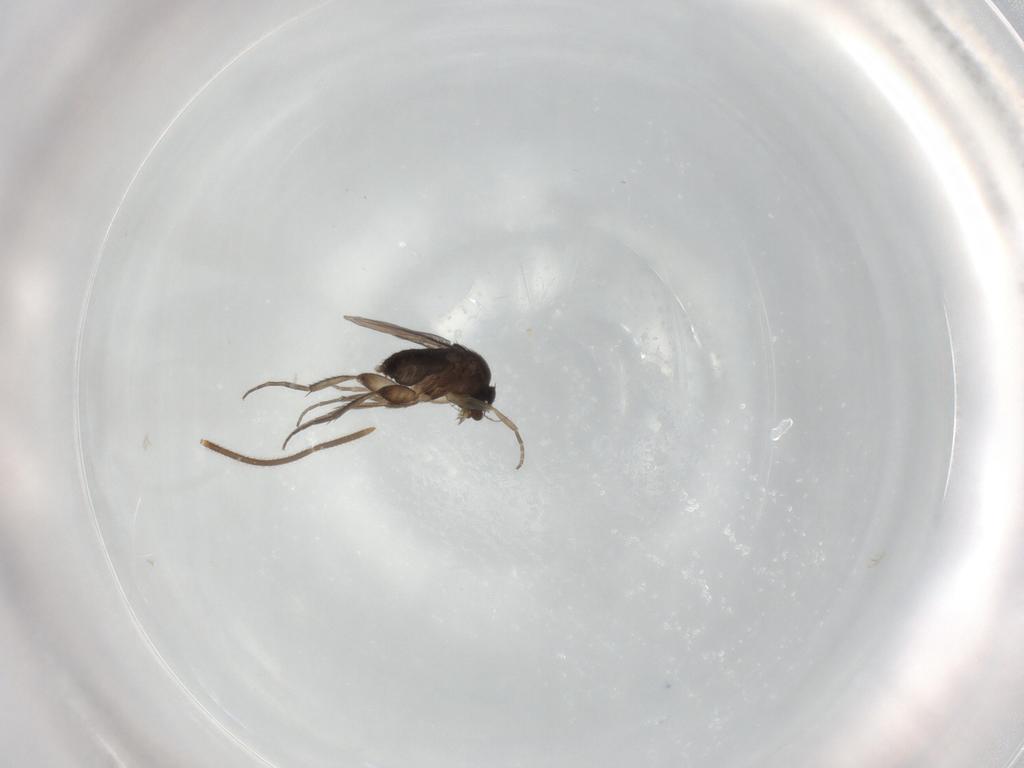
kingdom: Animalia
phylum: Arthropoda
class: Insecta
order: Diptera
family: Phoridae
